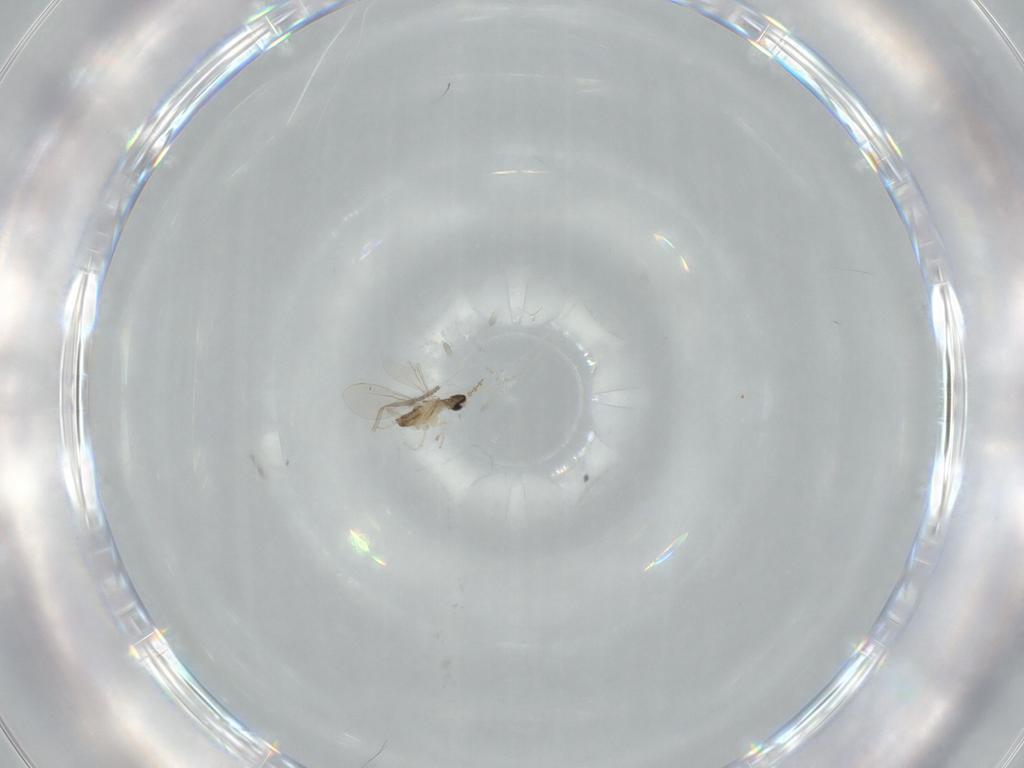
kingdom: Animalia
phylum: Arthropoda
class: Insecta
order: Diptera
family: Cecidomyiidae
